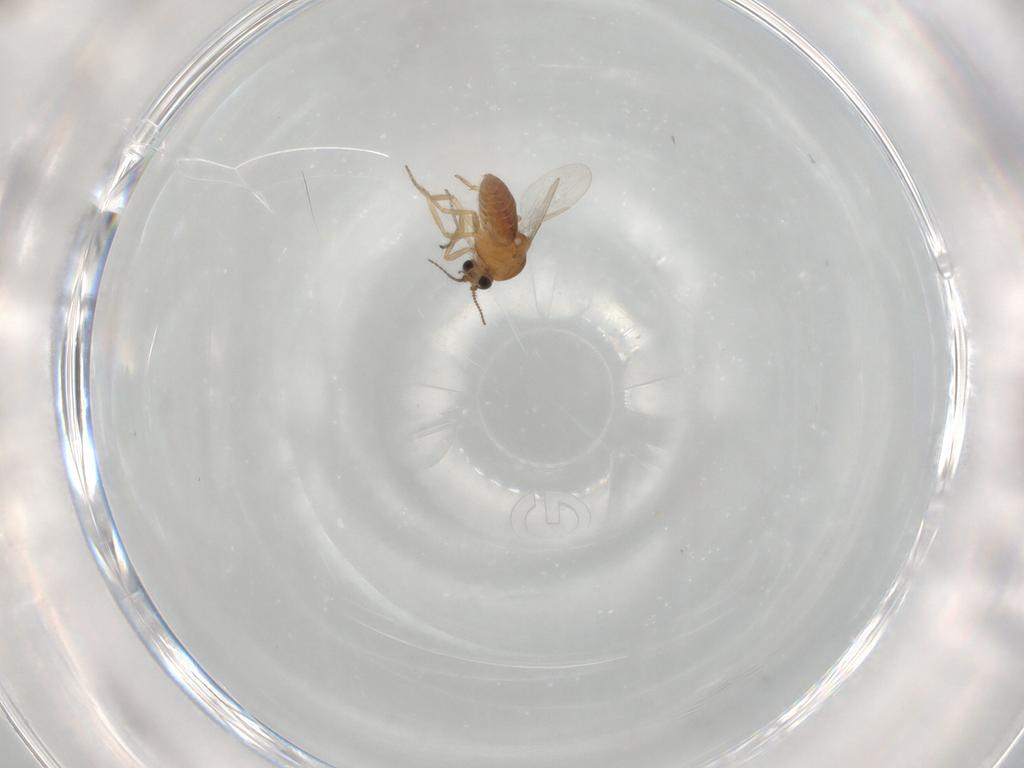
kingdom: Animalia
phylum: Arthropoda
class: Insecta
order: Diptera
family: Ceratopogonidae
